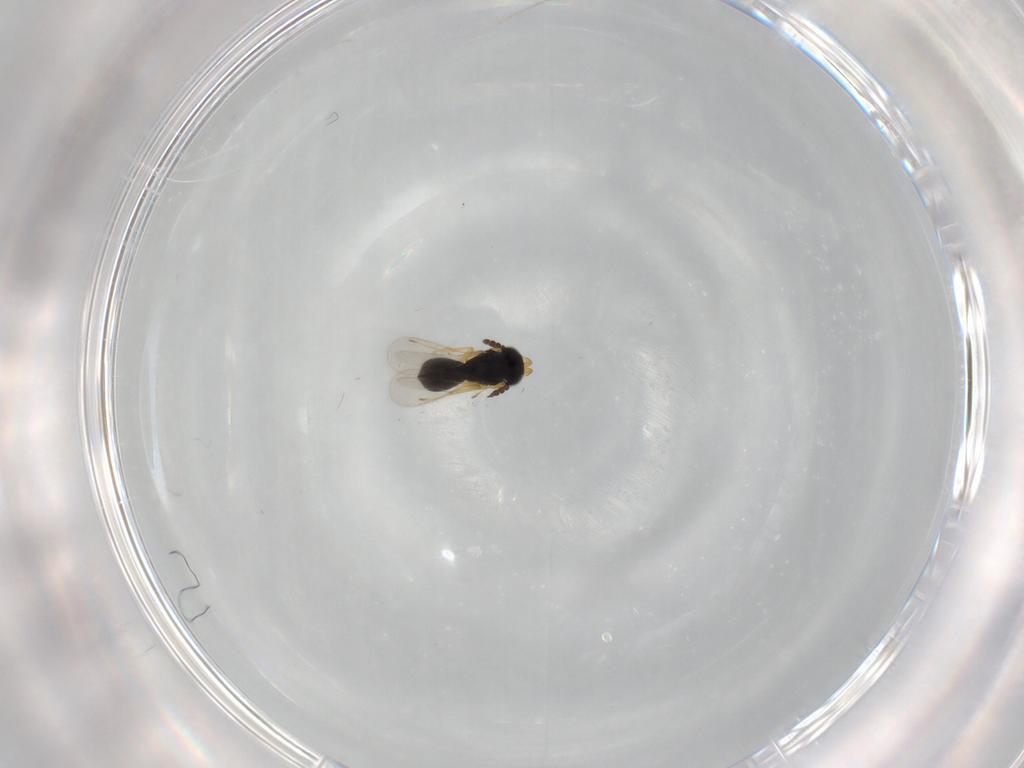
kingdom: Animalia
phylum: Arthropoda
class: Insecta
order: Hymenoptera
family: Scelionidae
